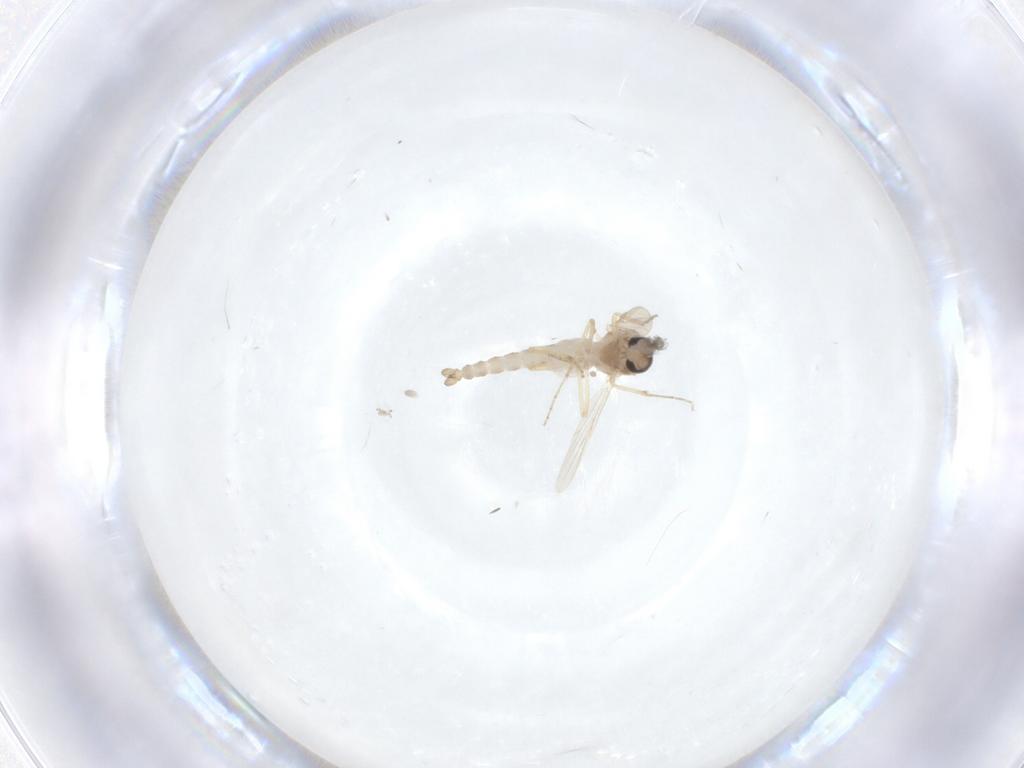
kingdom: Animalia
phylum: Arthropoda
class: Insecta
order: Diptera
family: Ceratopogonidae
